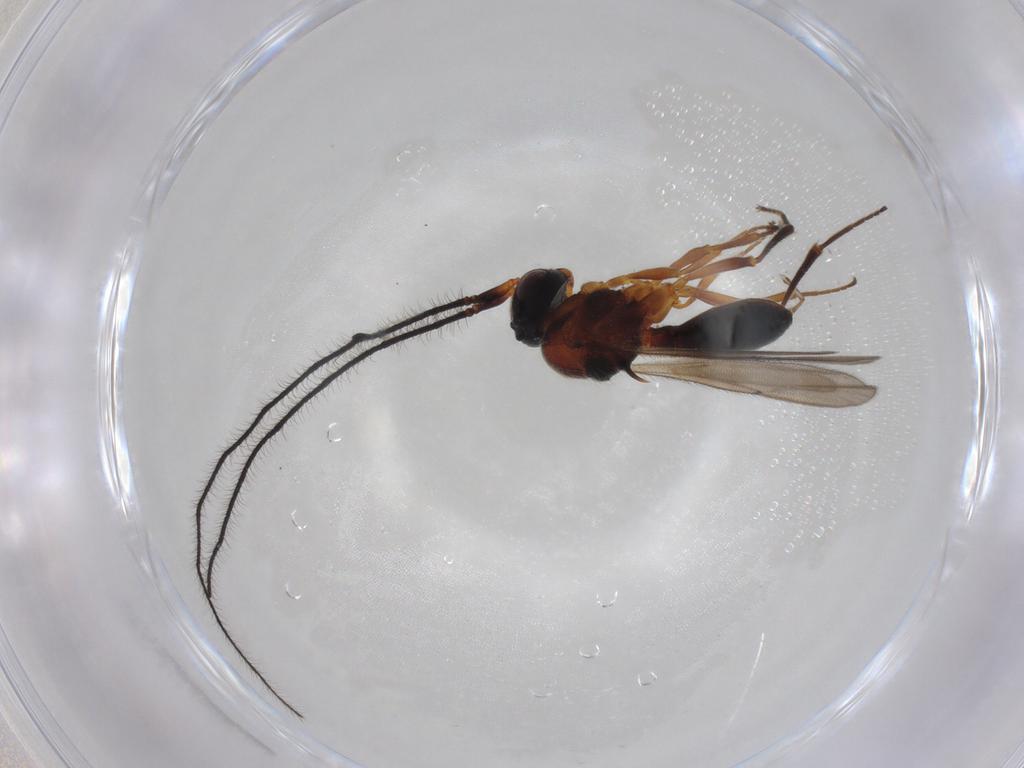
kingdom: Animalia
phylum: Arthropoda
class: Insecta
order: Hymenoptera
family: Scelionidae
